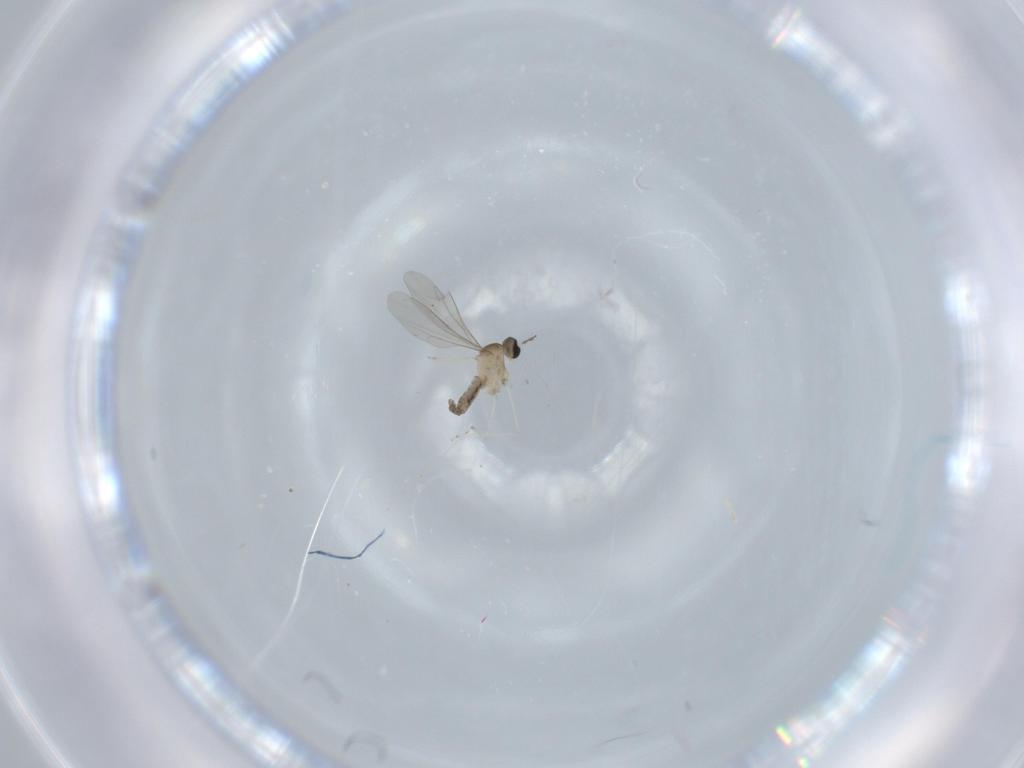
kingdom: Animalia
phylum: Arthropoda
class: Insecta
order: Diptera
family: Cecidomyiidae
